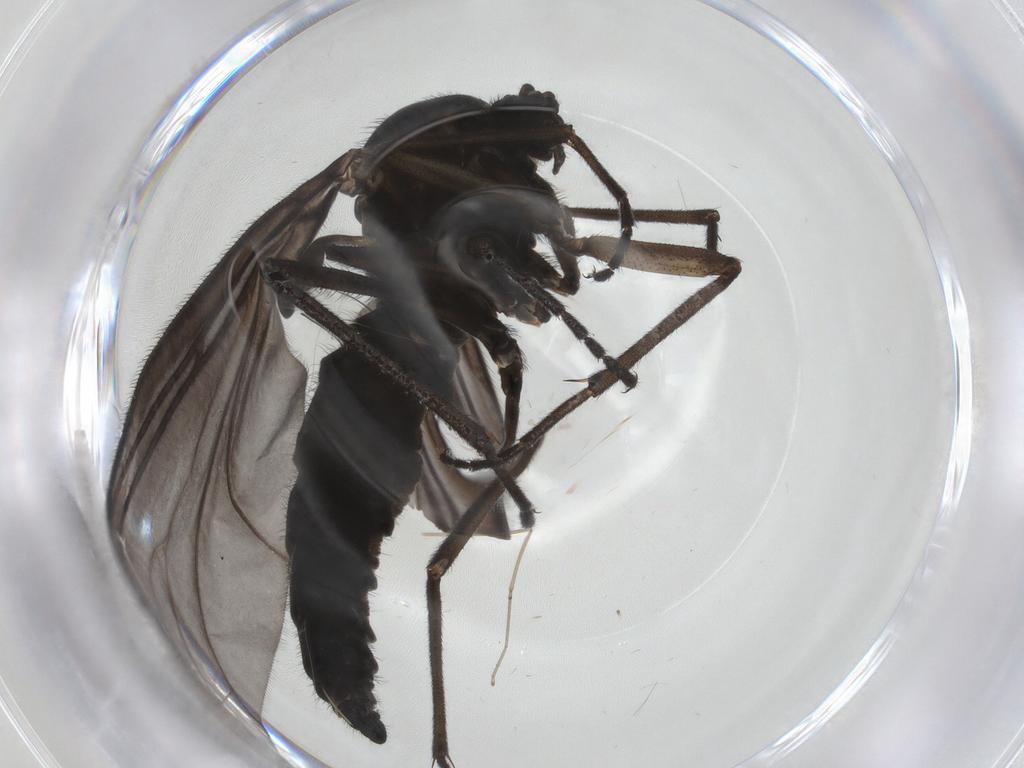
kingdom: Animalia
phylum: Arthropoda
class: Insecta
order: Diptera
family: Sciaridae
